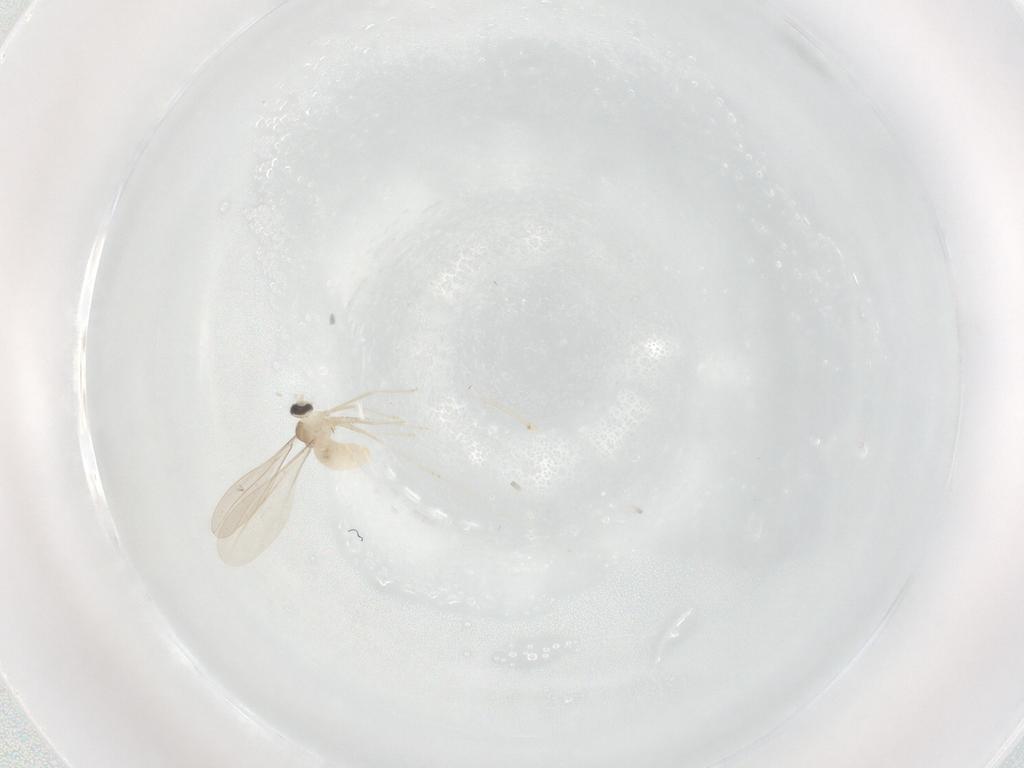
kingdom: Animalia
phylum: Arthropoda
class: Insecta
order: Diptera
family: Cecidomyiidae
